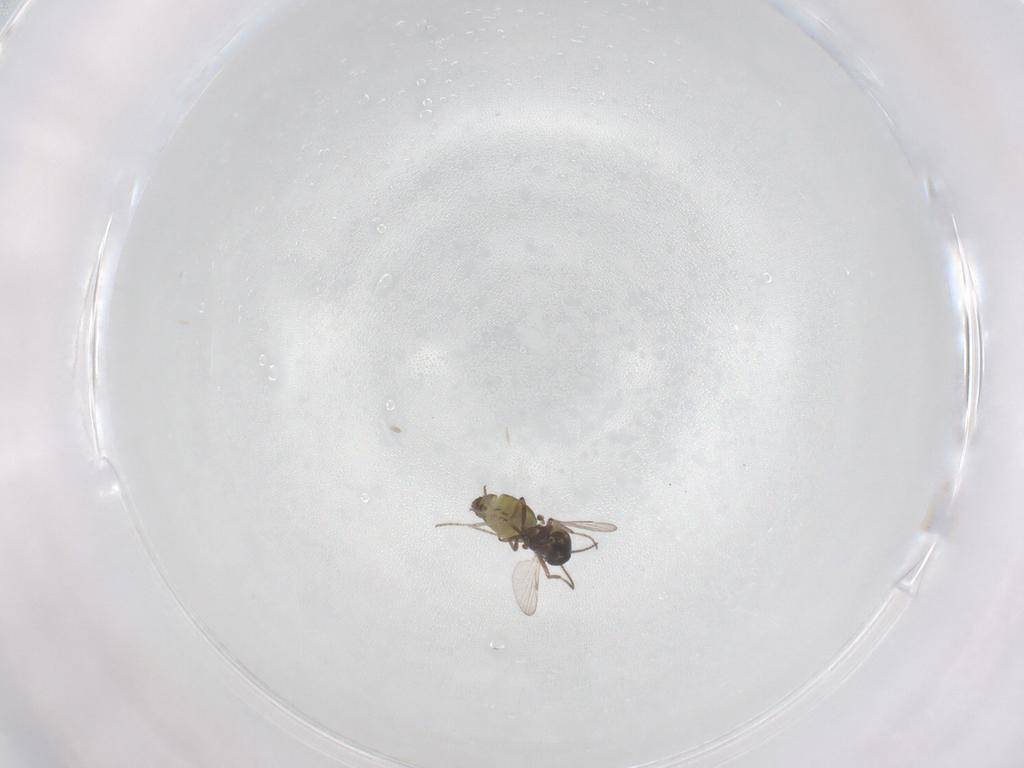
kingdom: Animalia
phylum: Arthropoda
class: Insecta
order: Diptera
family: Ceratopogonidae
